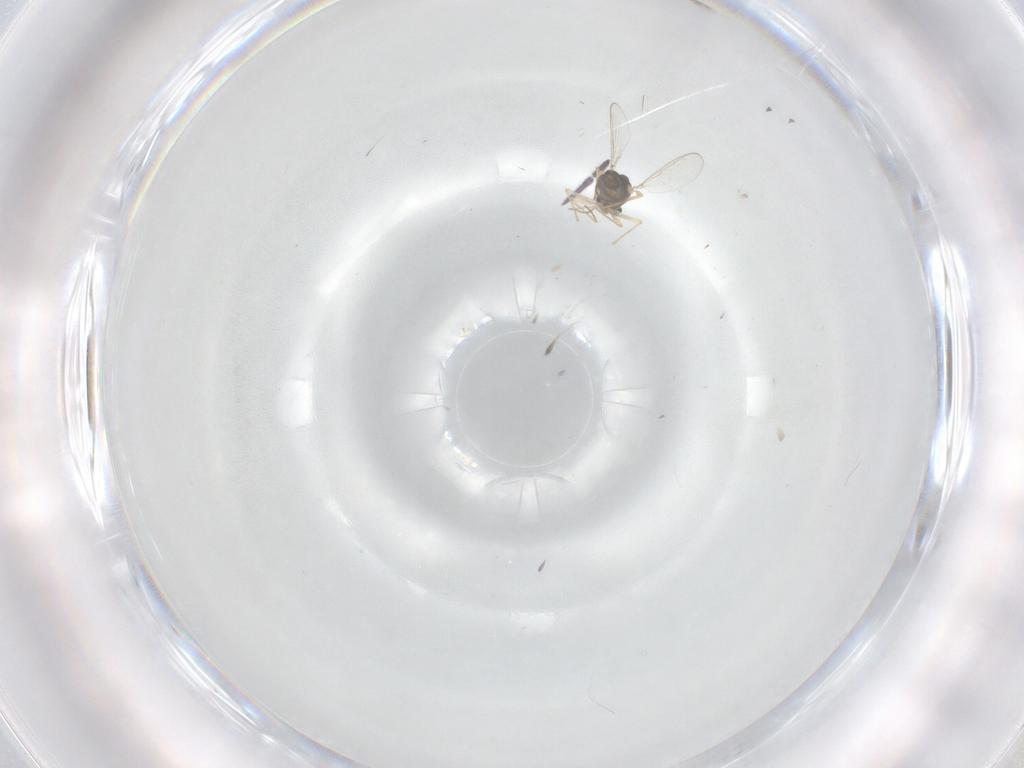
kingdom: Animalia
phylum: Arthropoda
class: Insecta
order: Diptera
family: Chironomidae
